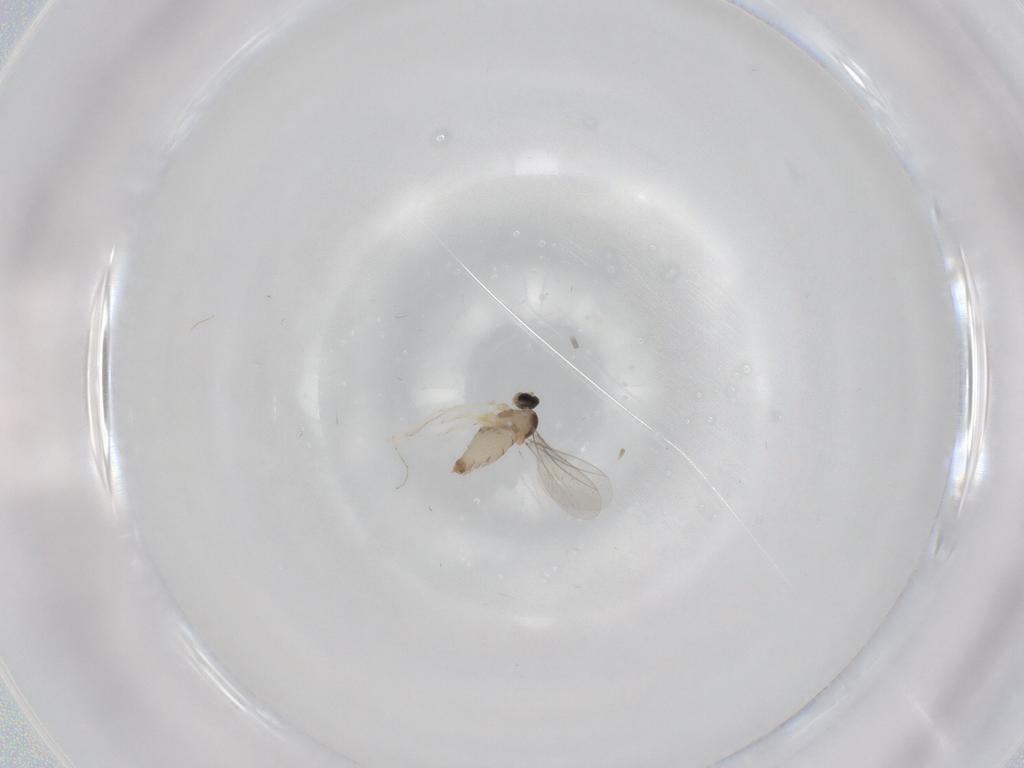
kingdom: Animalia
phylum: Arthropoda
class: Insecta
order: Diptera
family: Cecidomyiidae
